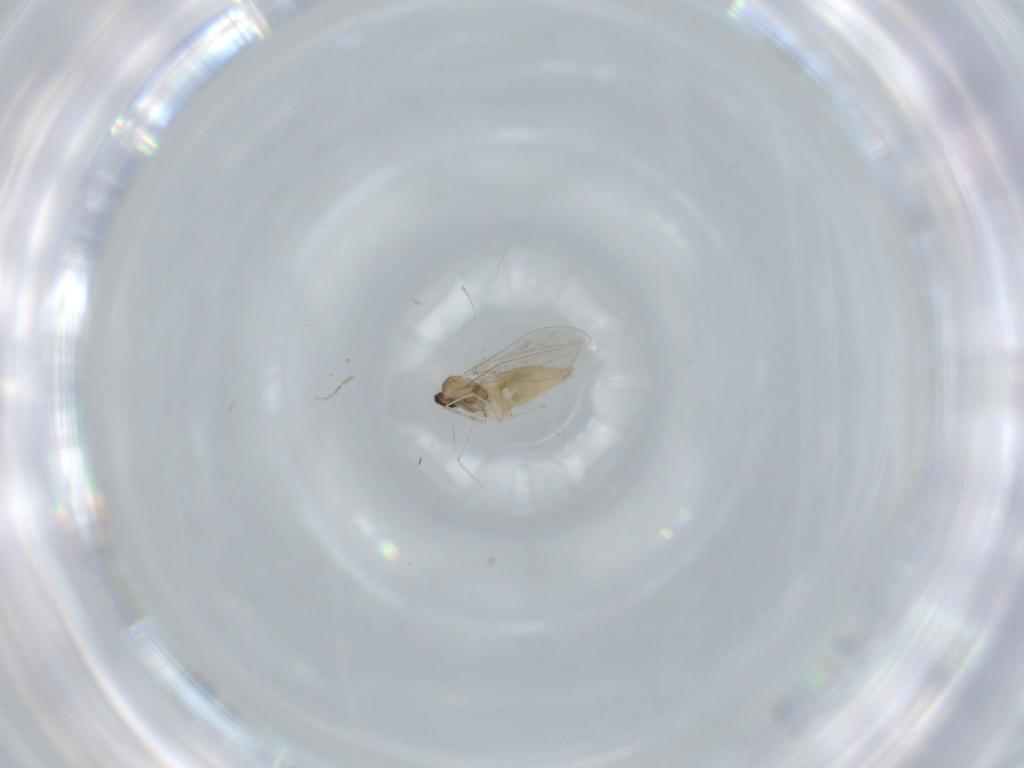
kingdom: Animalia
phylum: Arthropoda
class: Insecta
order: Diptera
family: Cecidomyiidae
